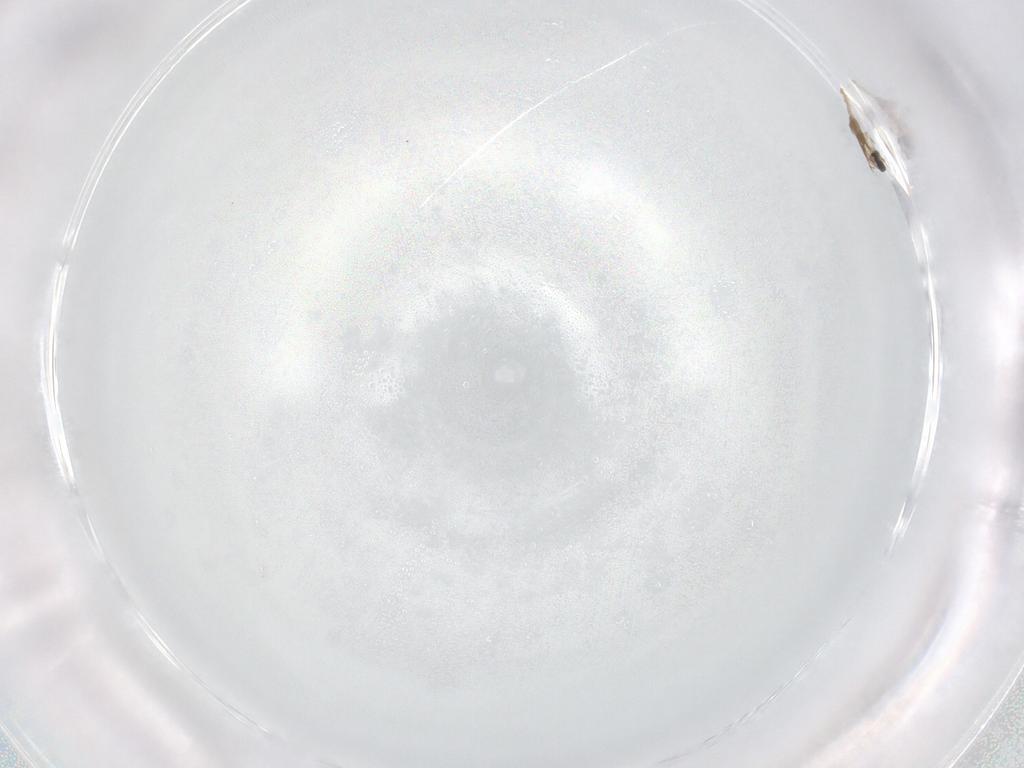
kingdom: Animalia
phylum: Arthropoda
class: Insecta
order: Diptera
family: Cecidomyiidae
